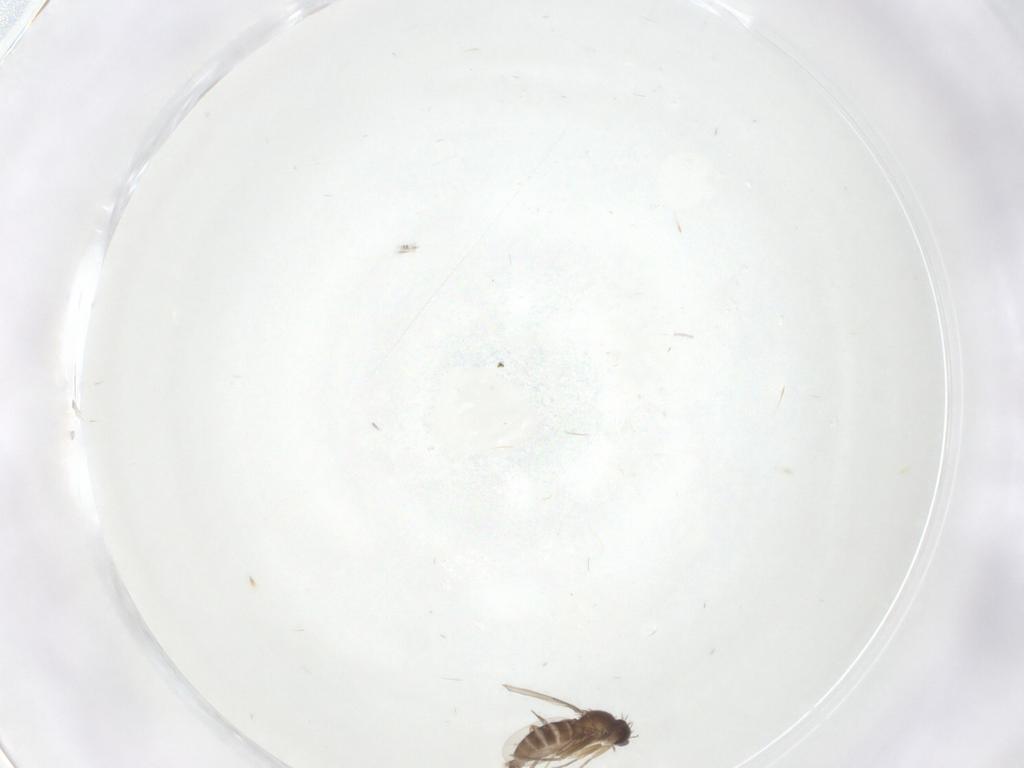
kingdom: Animalia
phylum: Arthropoda
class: Insecta
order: Diptera
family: Phoridae
